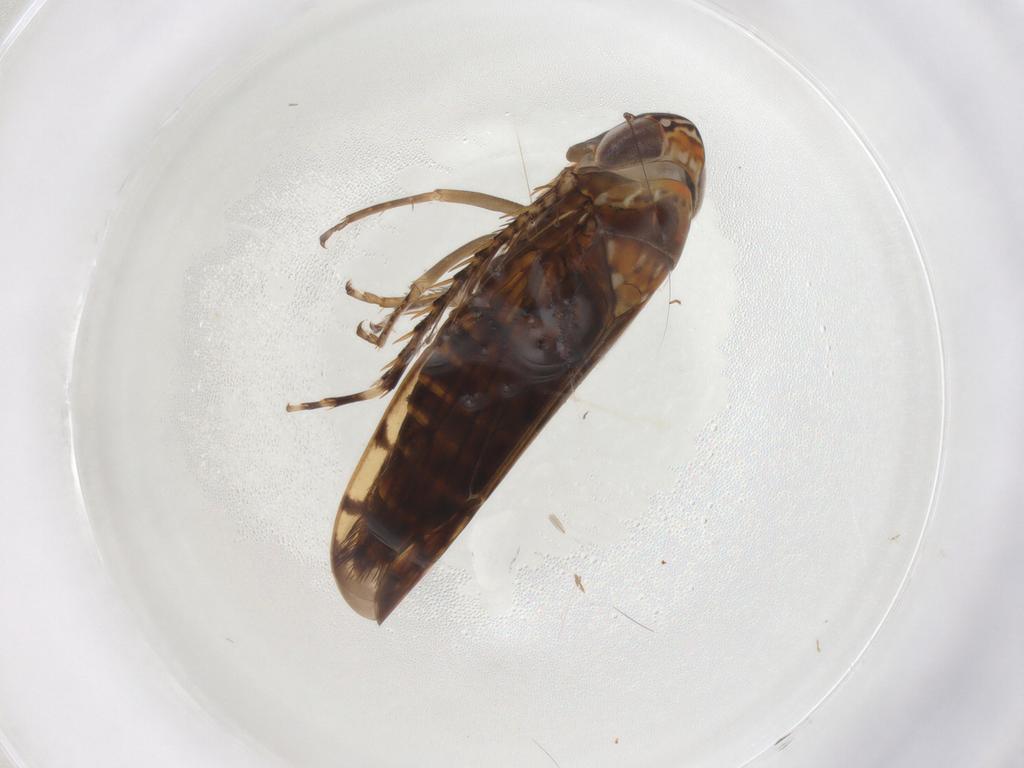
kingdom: Animalia
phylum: Arthropoda
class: Insecta
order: Hemiptera
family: Cicadellidae
